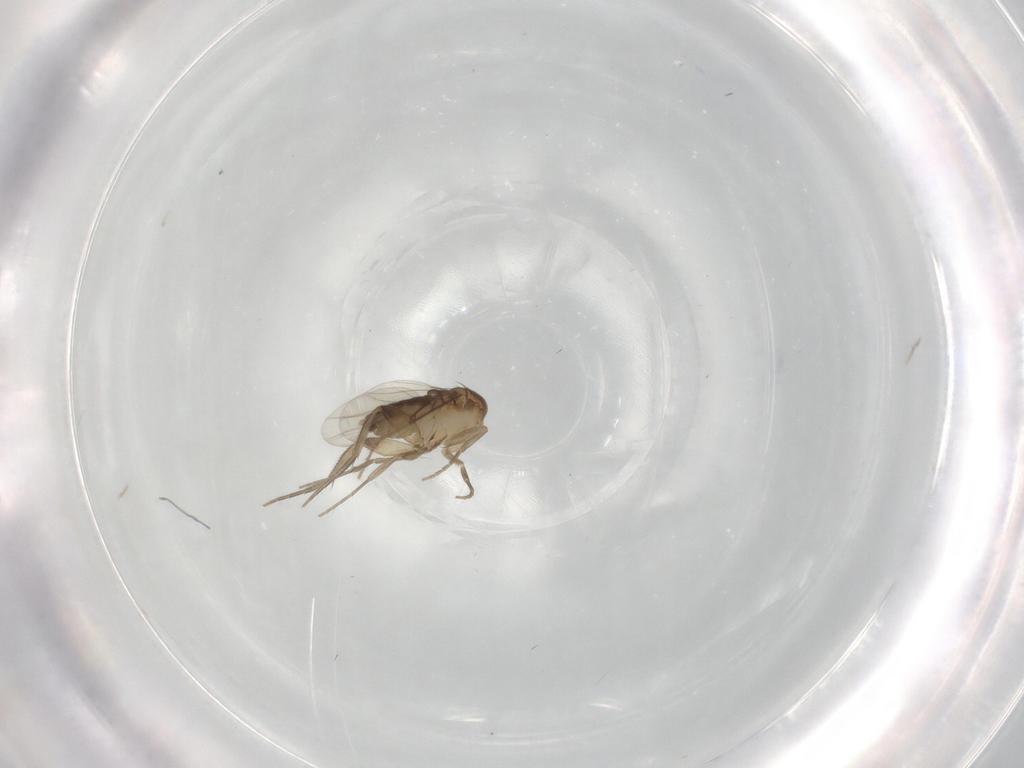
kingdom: Animalia
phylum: Arthropoda
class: Insecta
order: Diptera
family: Phoridae
